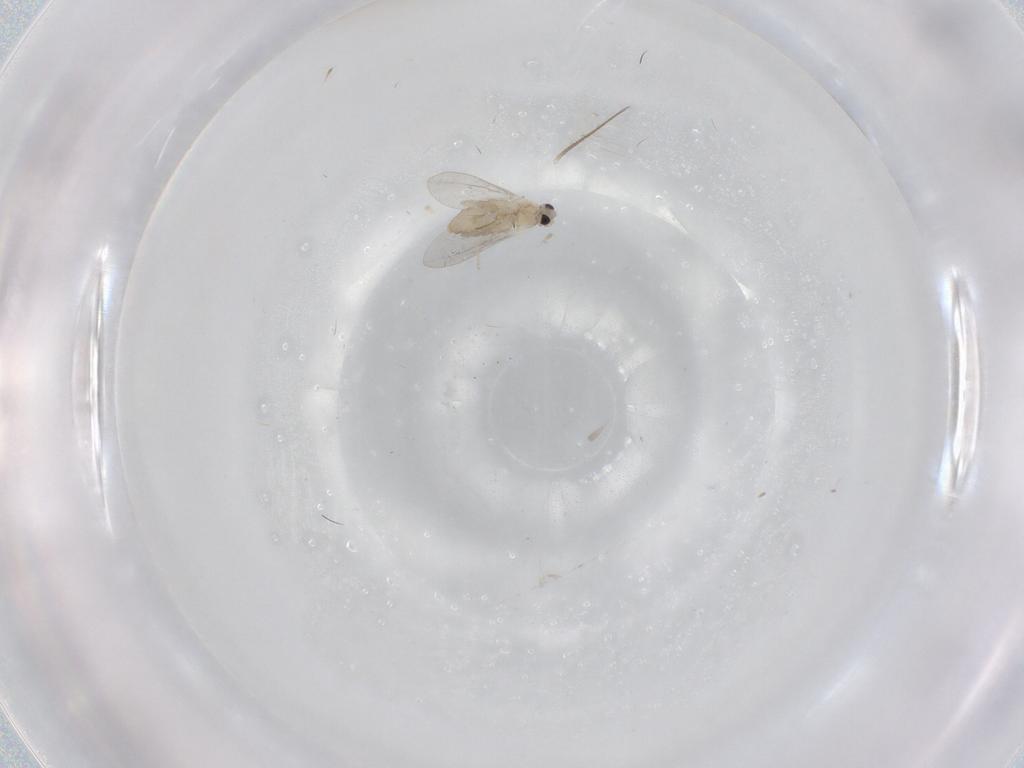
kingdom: Animalia
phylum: Arthropoda
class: Insecta
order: Diptera
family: Cecidomyiidae
